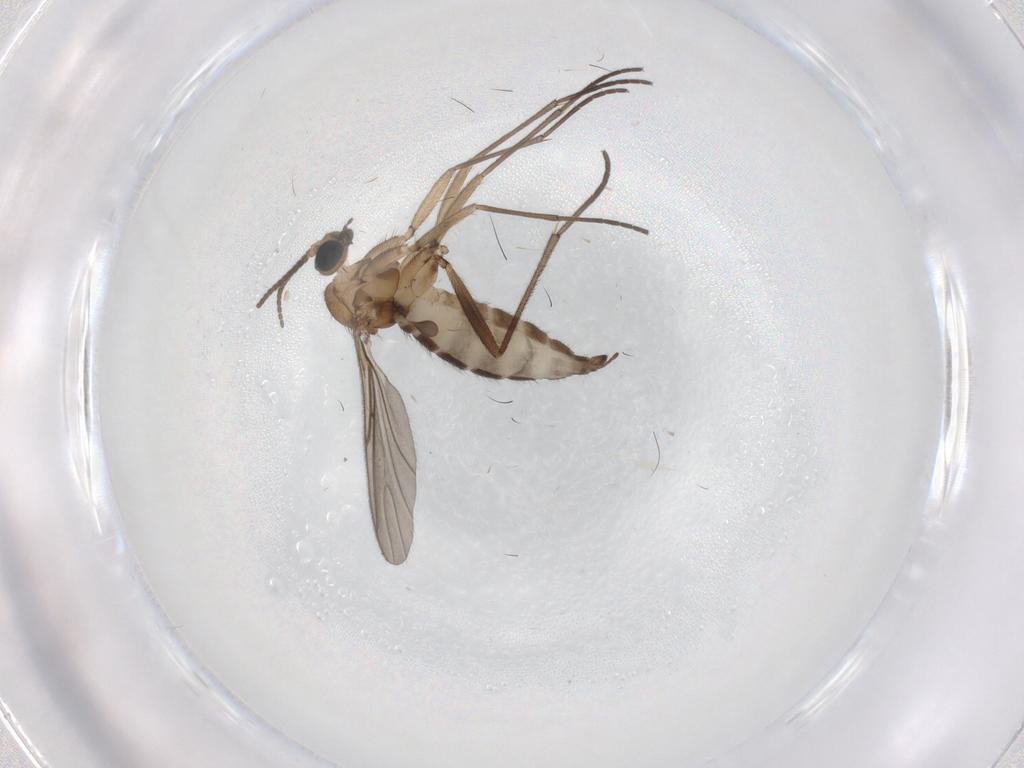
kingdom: Animalia
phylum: Arthropoda
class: Insecta
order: Diptera
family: Sciaridae
